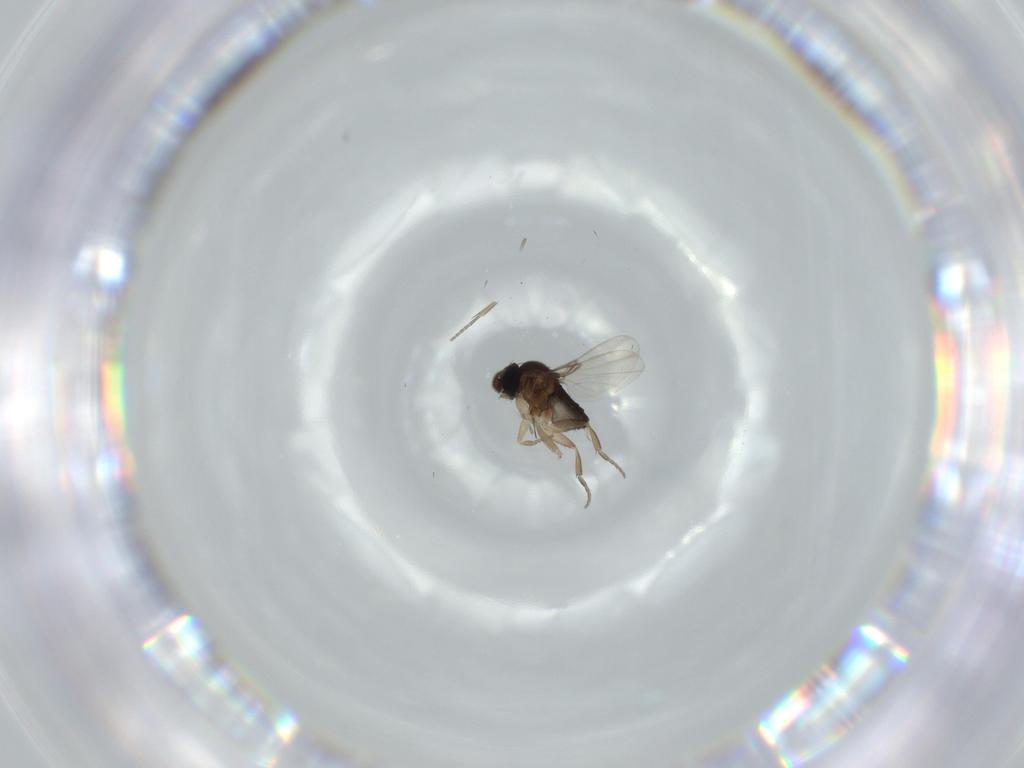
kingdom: Animalia
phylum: Arthropoda
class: Insecta
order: Diptera
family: Phoridae
